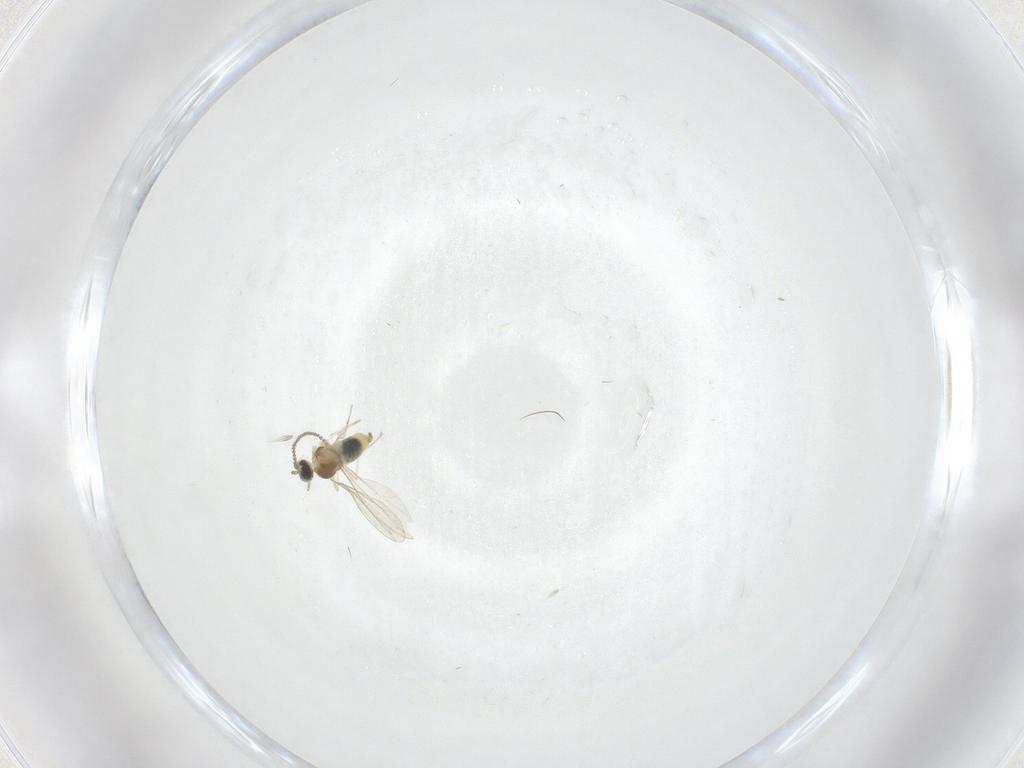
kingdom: Animalia
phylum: Arthropoda
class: Insecta
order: Diptera
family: Cecidomyiidae
